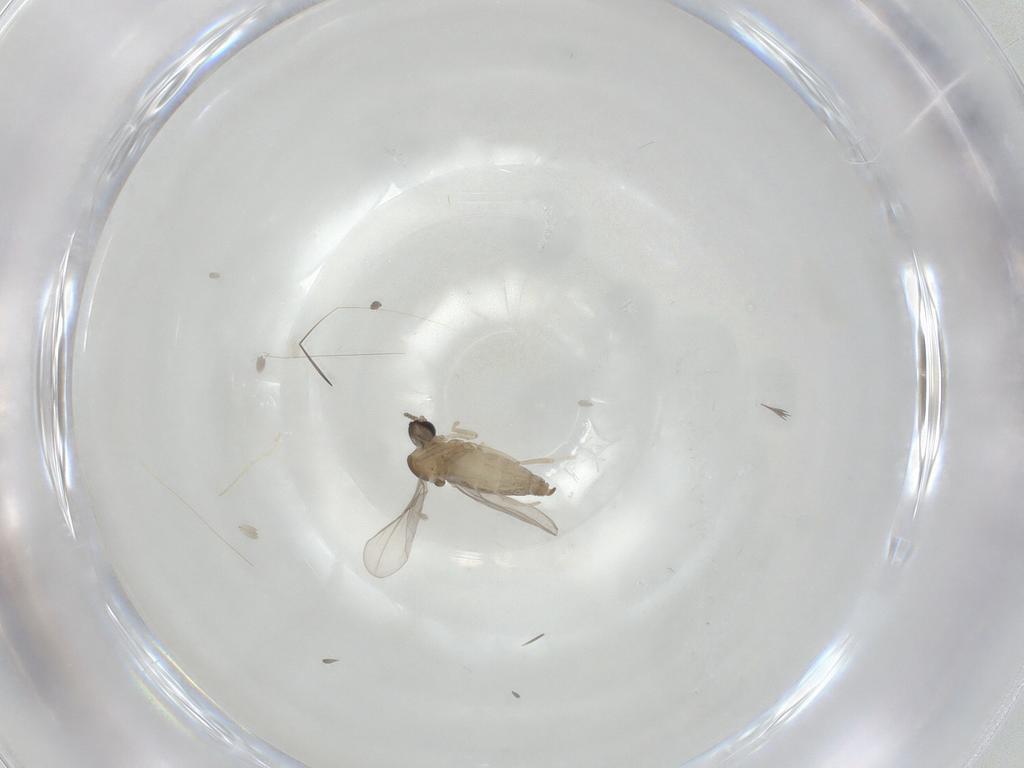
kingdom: Animalia
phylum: Arthropoda
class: Insecta
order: Diptera
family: Cecidomyiidae
